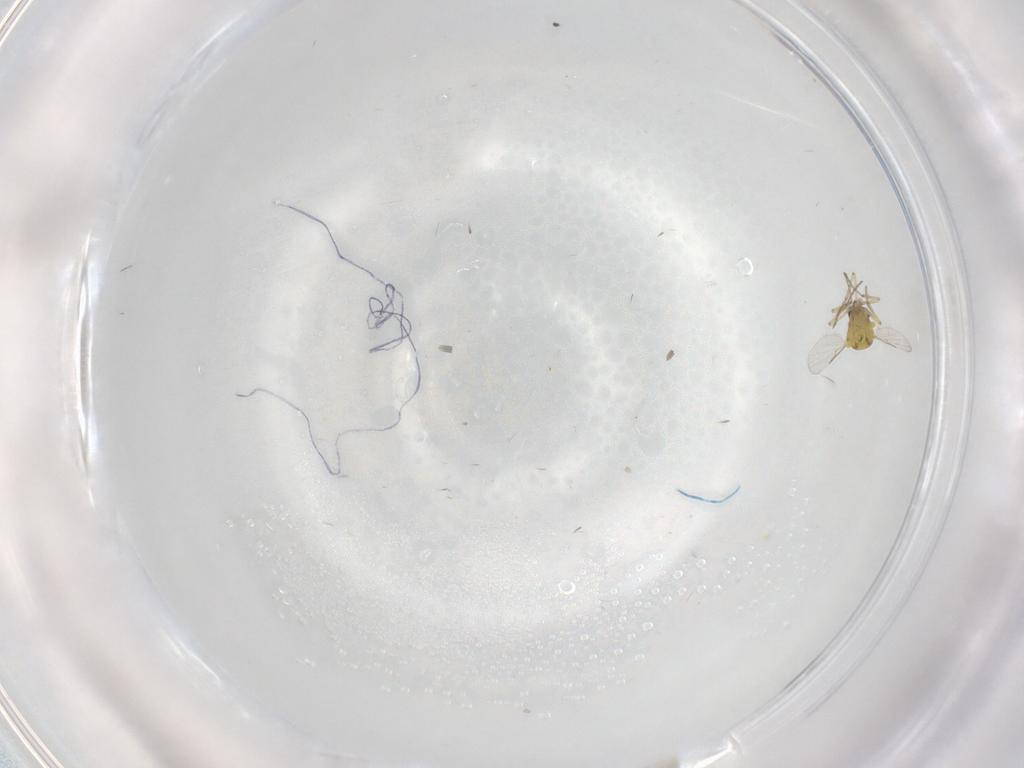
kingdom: Animalia
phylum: Arthropoda
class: Insecta
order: Diptera
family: Ceratopogonidae
